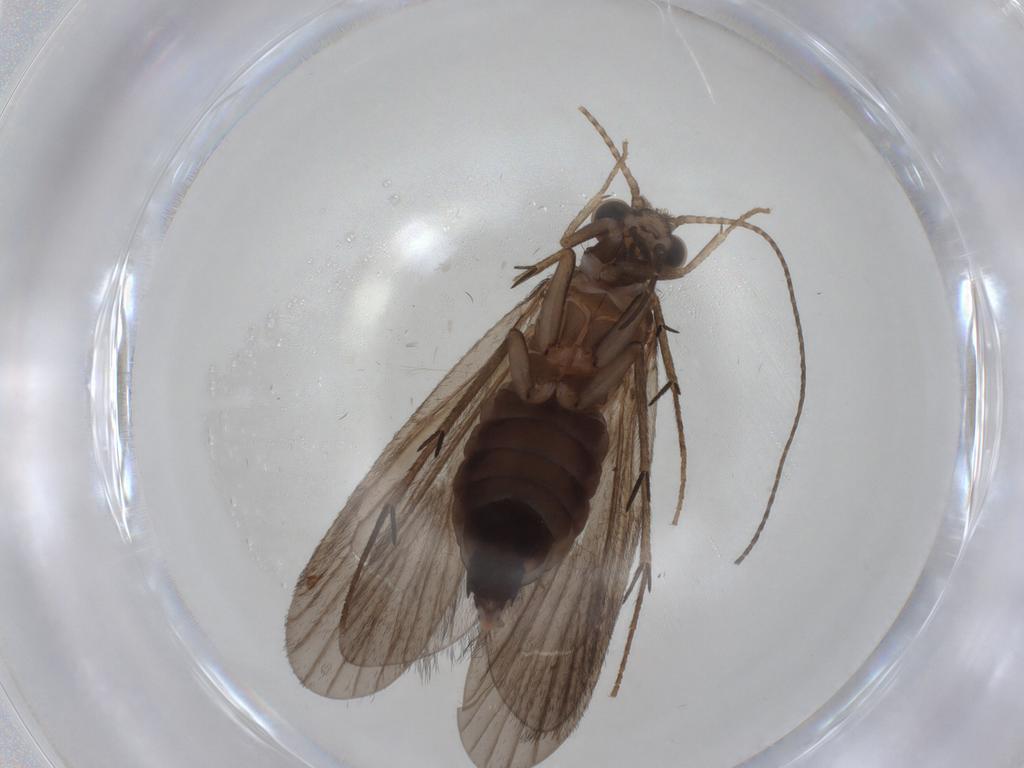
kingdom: Animalia
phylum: Arthropoda
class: Insecta
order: Trichoptera
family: Philopotamidae
